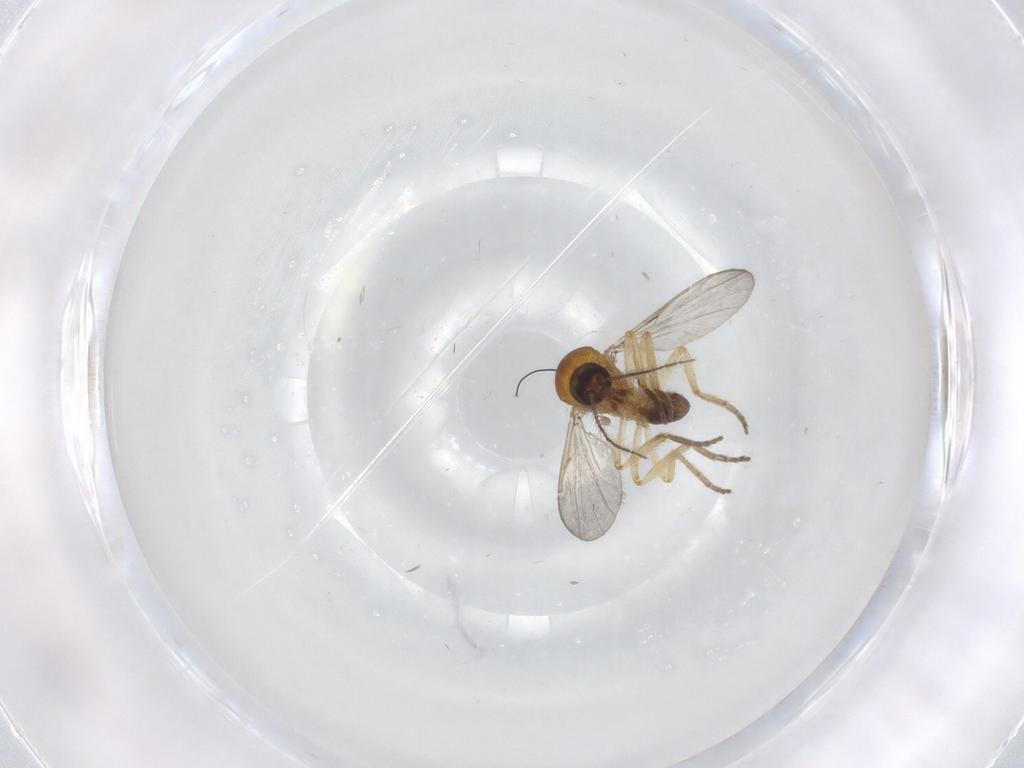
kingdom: Animalia
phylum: Arthropoda
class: Insecta
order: Diptera
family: Ceratopogonidae
